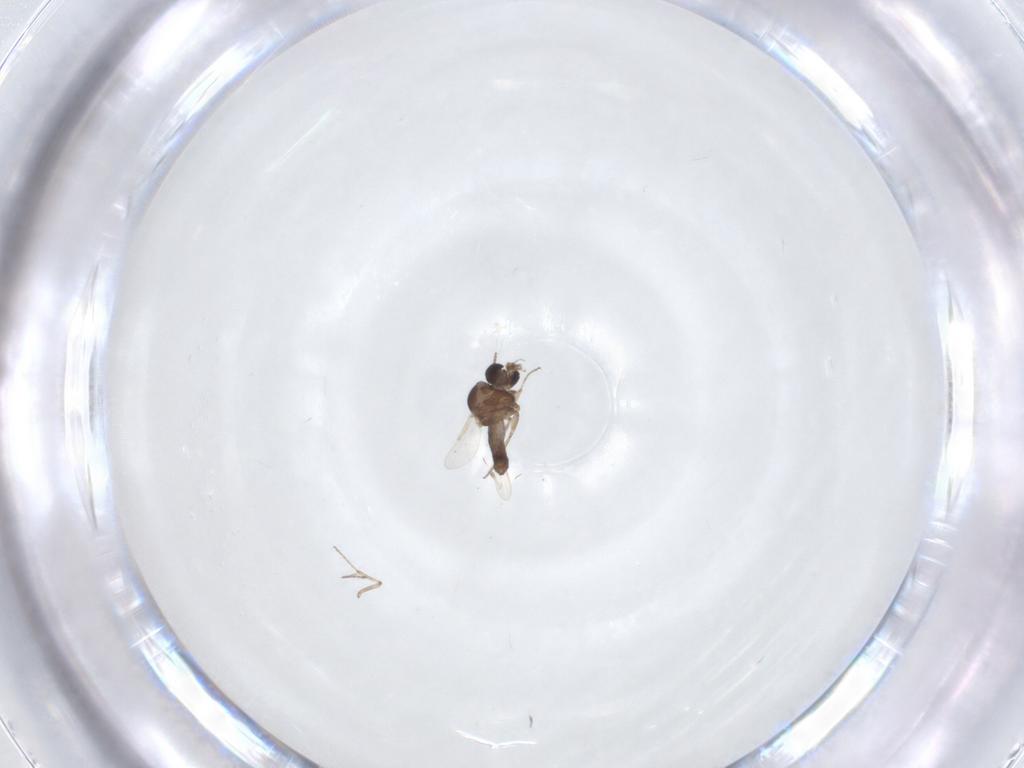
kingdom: Animalia
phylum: Arthropoda
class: Insecta
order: Diptera
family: Ceratopogonidae
